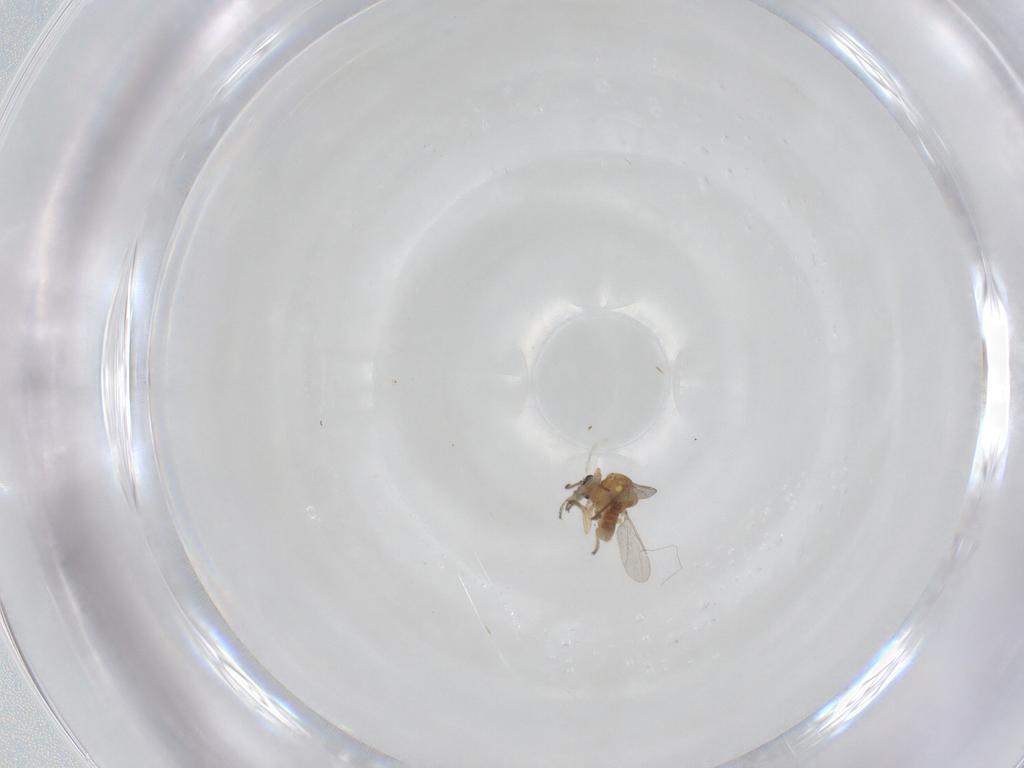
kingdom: Animalia
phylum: Arthropoda
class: Insecta
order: Diptera
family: Ceratopogonidae
